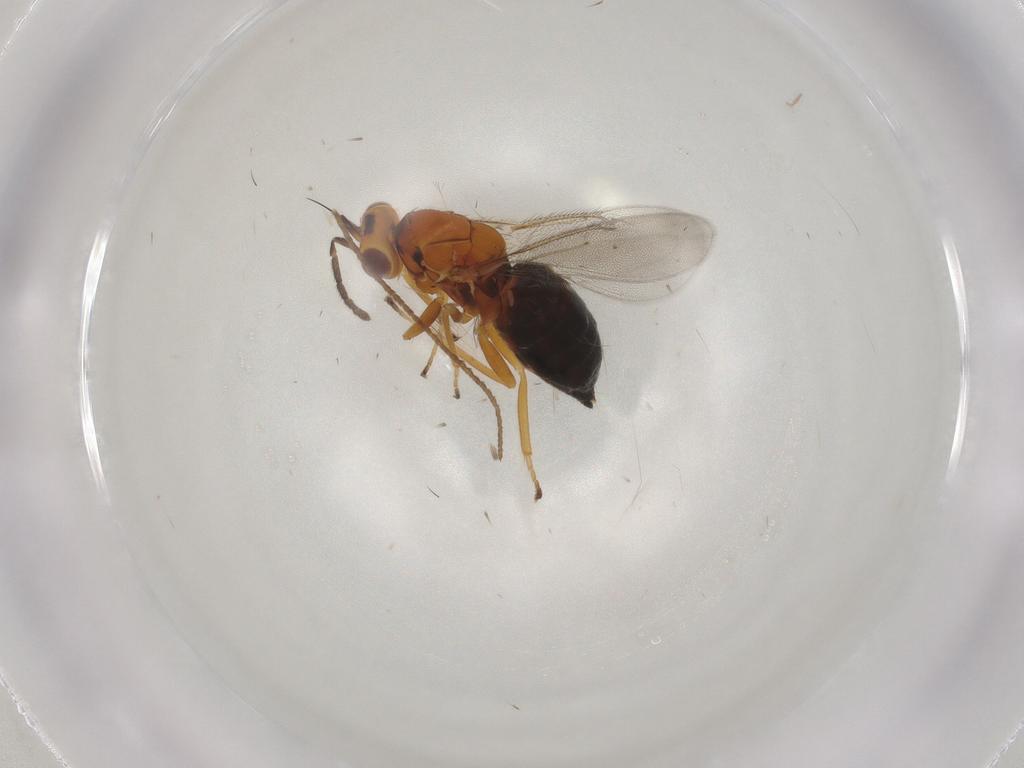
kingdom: Animalia
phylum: Arthropoda
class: Insecta
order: Hymenoptera
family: Eulophidae
